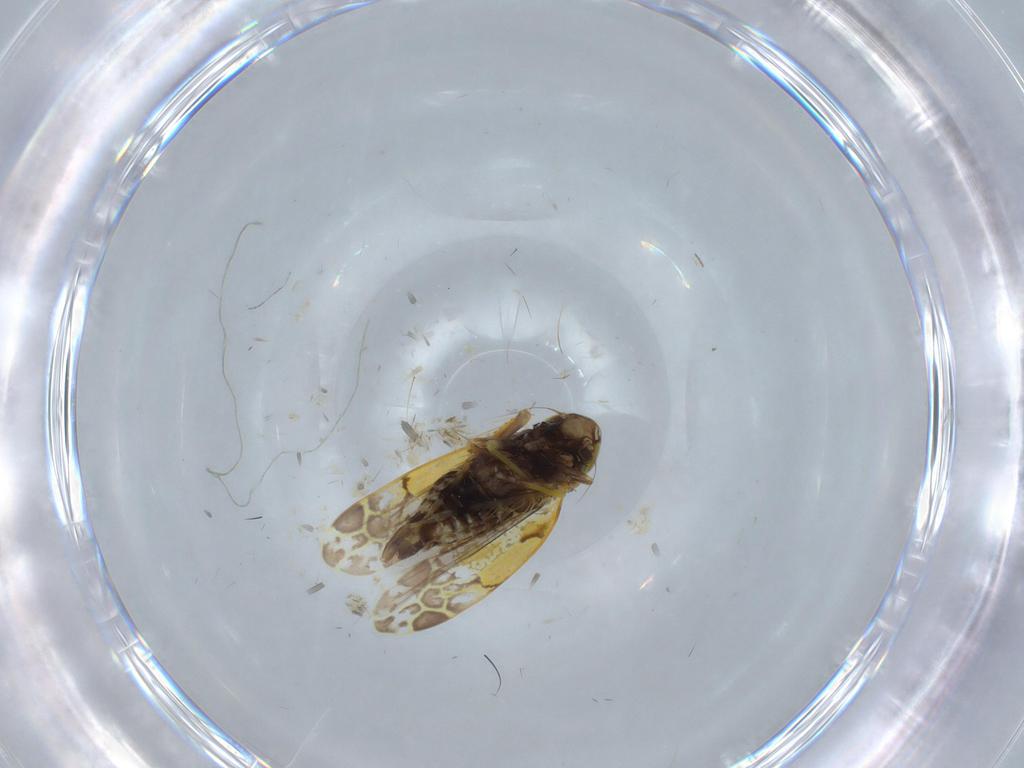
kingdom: Animalia
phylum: Arthropoda
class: Insecta
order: Hemiptera
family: Cicadellidae
